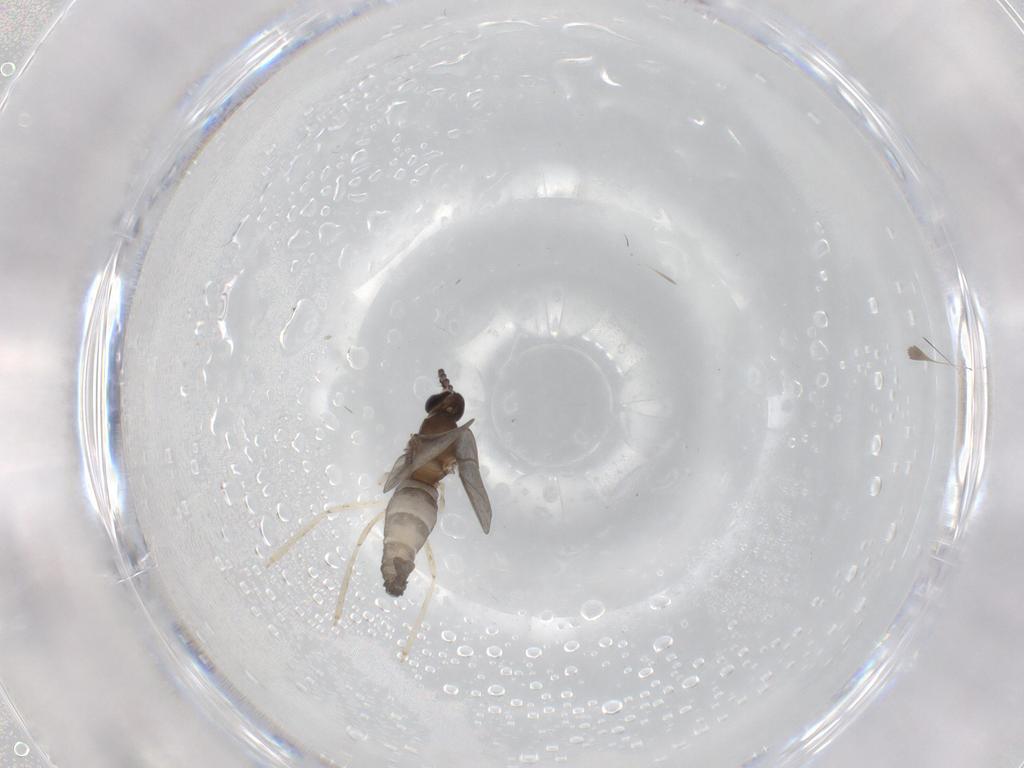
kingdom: Animalia
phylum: Arthropoda
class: Insecta
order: Diptera
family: Cecidomyiidae
